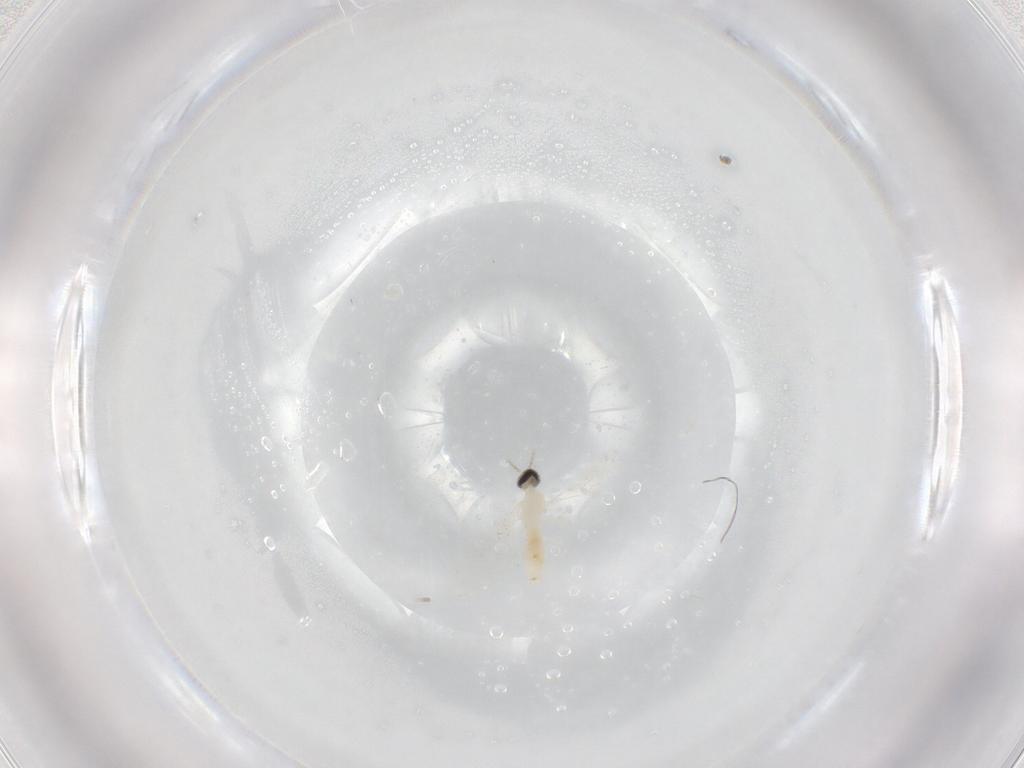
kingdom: Animalia
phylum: Arthropoda
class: Insecta
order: Diptera
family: Cecidomyiidae
